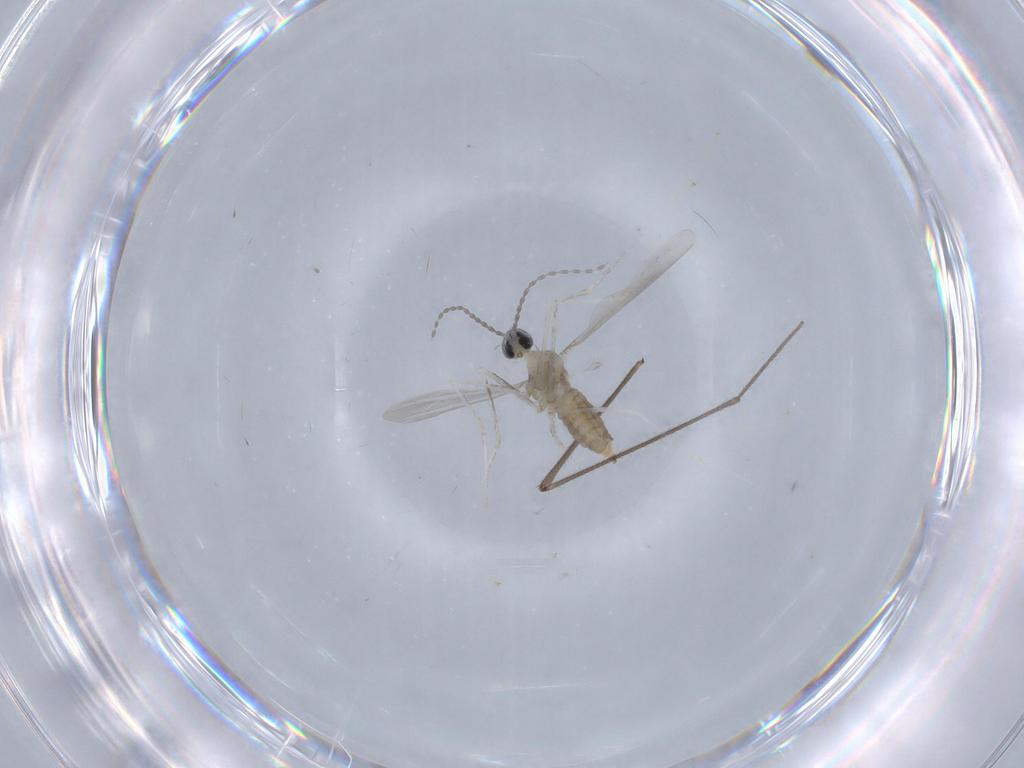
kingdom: Animalia
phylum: Arthropoda
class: Insecta
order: Diptera
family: Cecidomyiidae
